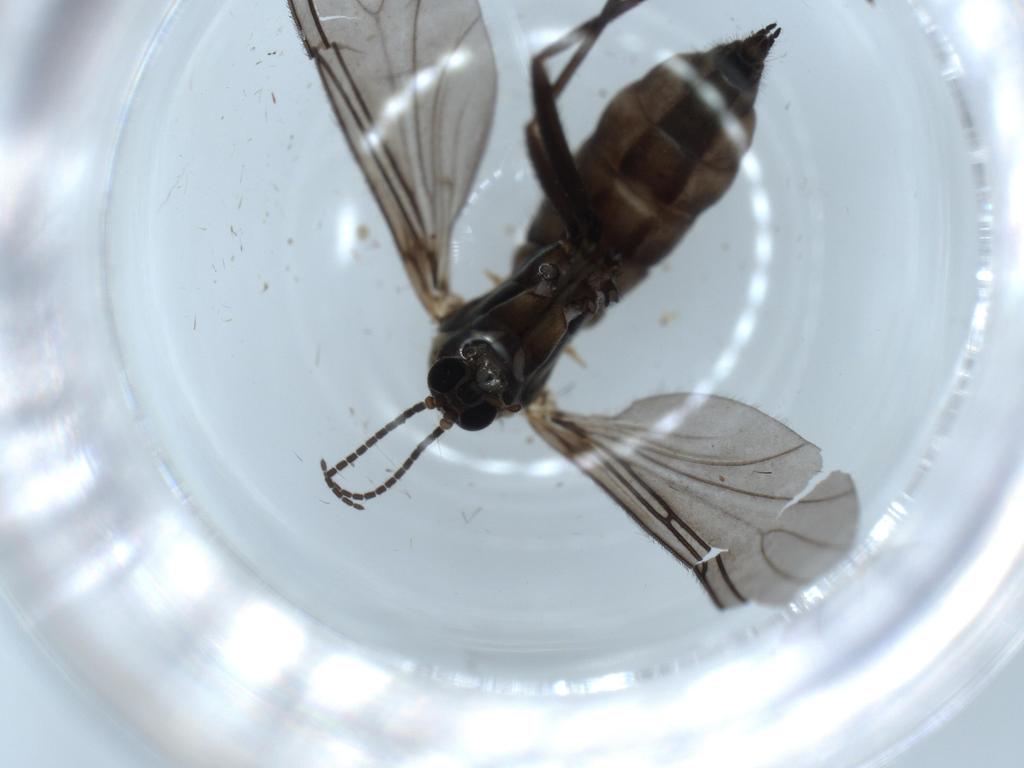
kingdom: Animalia
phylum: Arthropoda
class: Insecta
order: Diptera
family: Sciaridae
